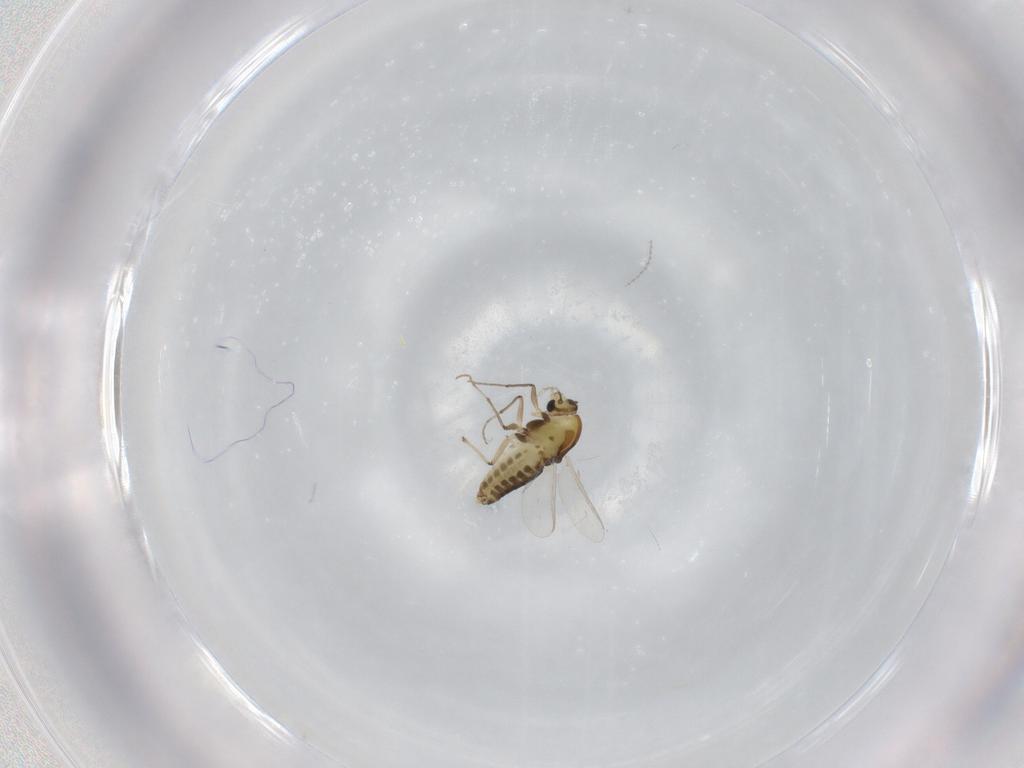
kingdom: Animalia
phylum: Arthropoda
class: Insecta
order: Diptera
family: Chironomidae
